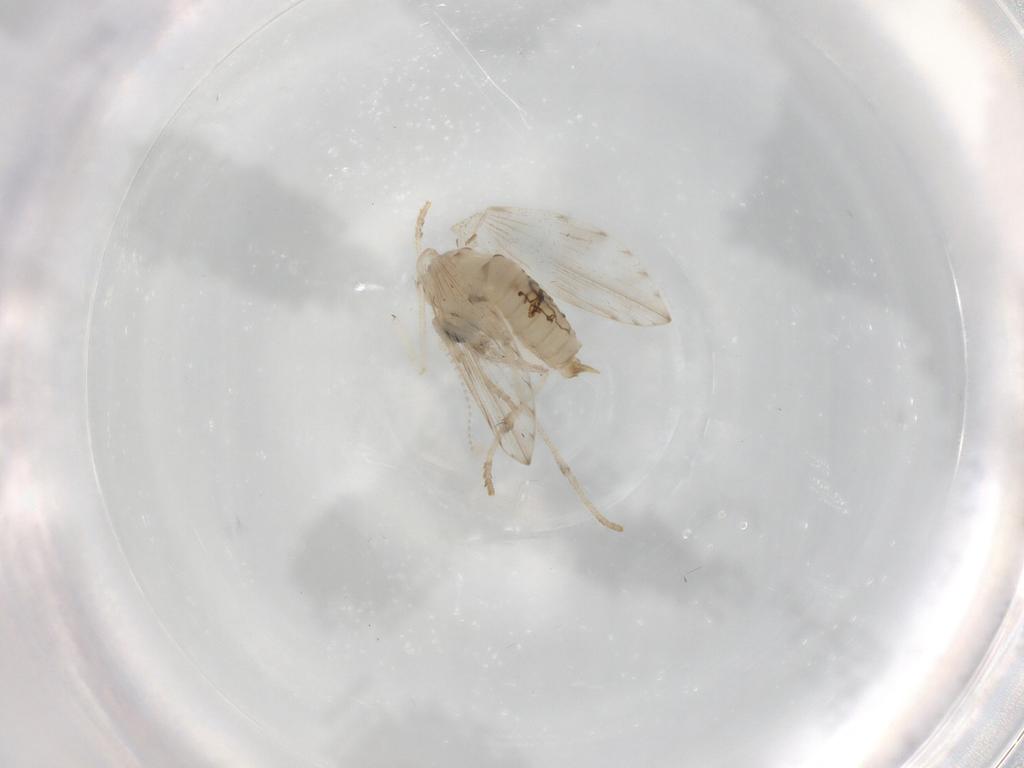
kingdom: Animalia
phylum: Arthropoda
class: Insecta
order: Diptera
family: Psychodidae
